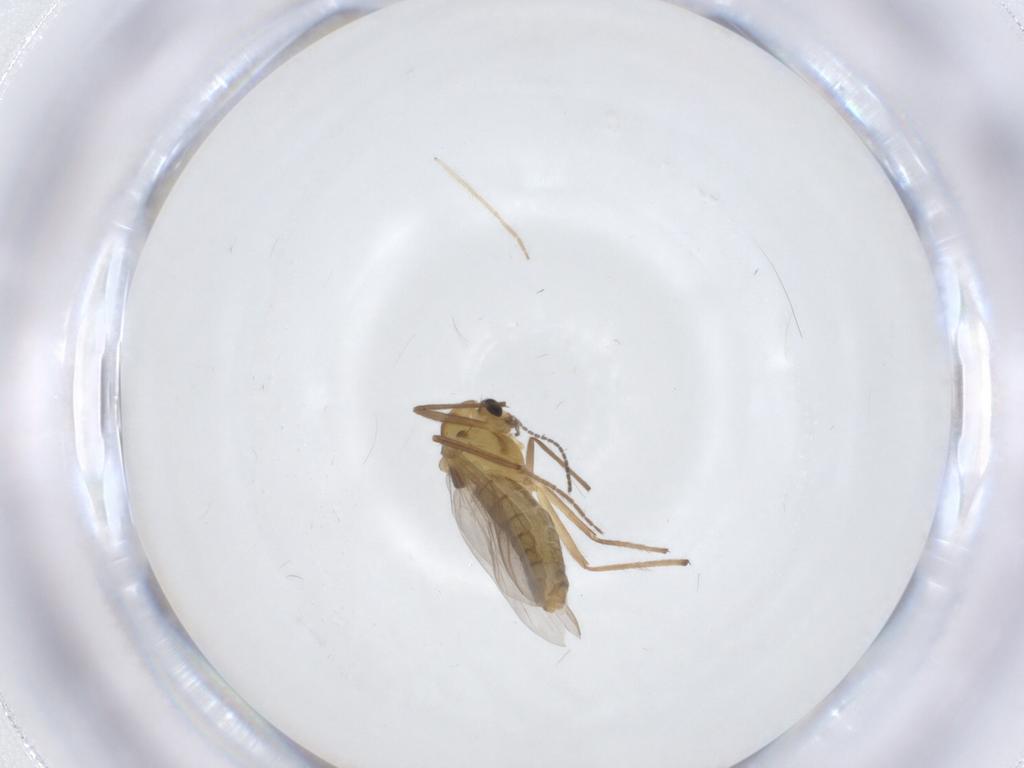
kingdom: Animalia
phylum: Arthropoda
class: Insecta
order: Diptera
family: Chironomidae
